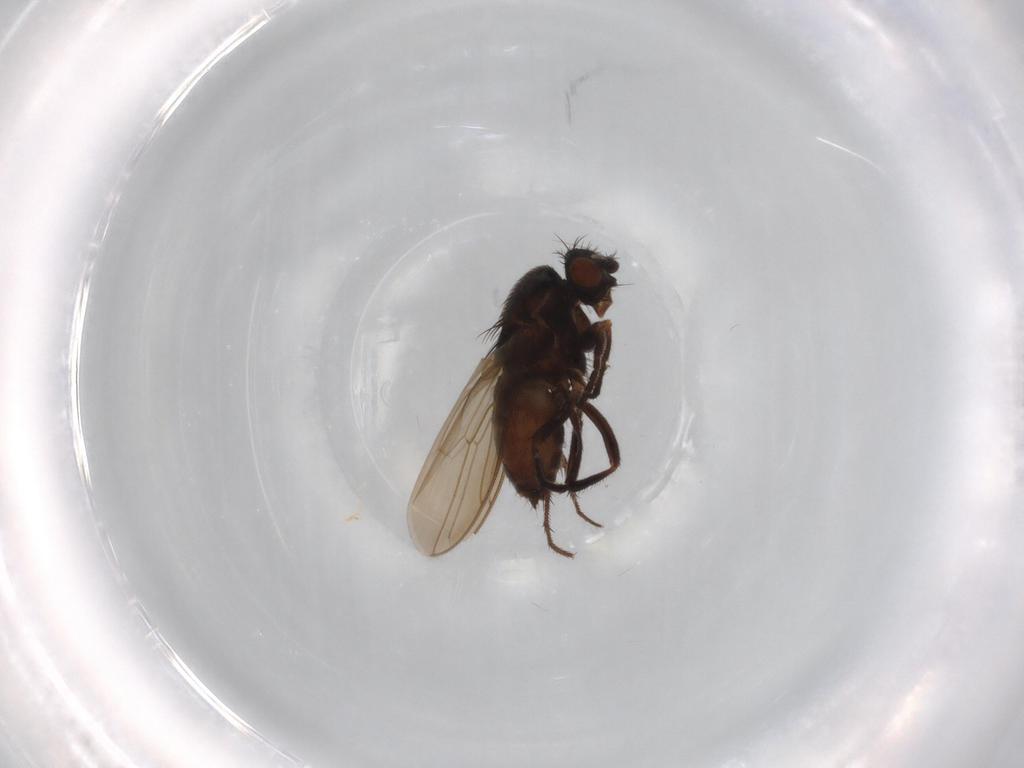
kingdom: Animalia
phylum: Arthropoda
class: Insecta
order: Diptera
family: Sphaeroceridae
